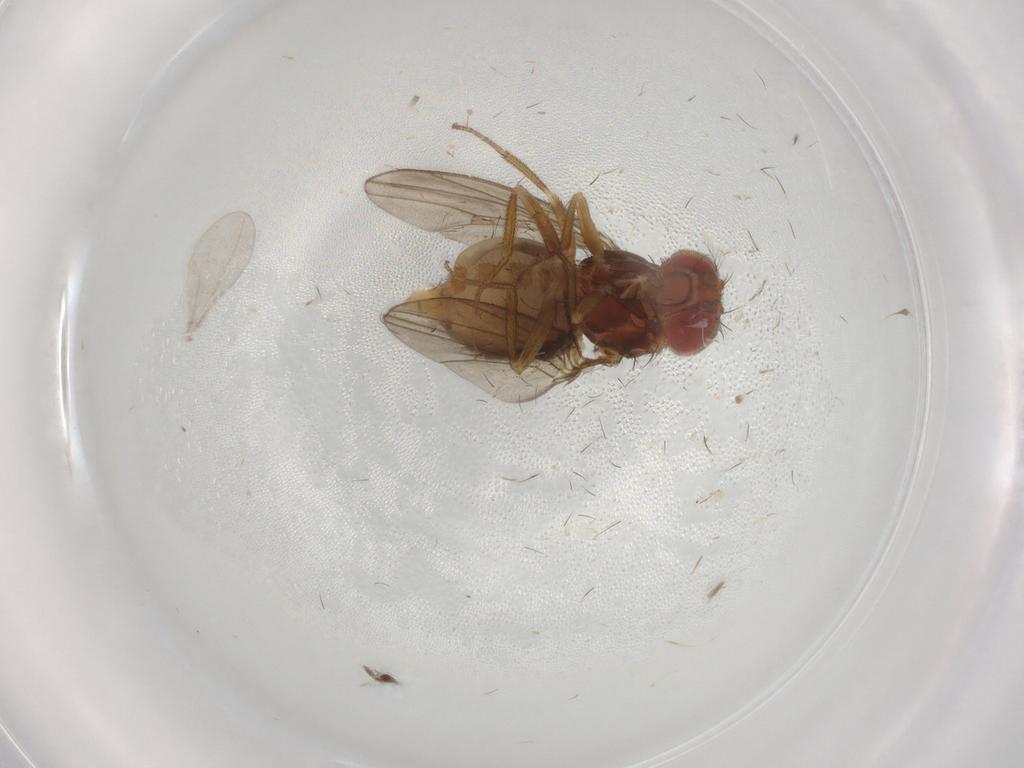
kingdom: Animalia
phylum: Arthropoda
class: Insecta
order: Diptera
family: Drosophilidae
